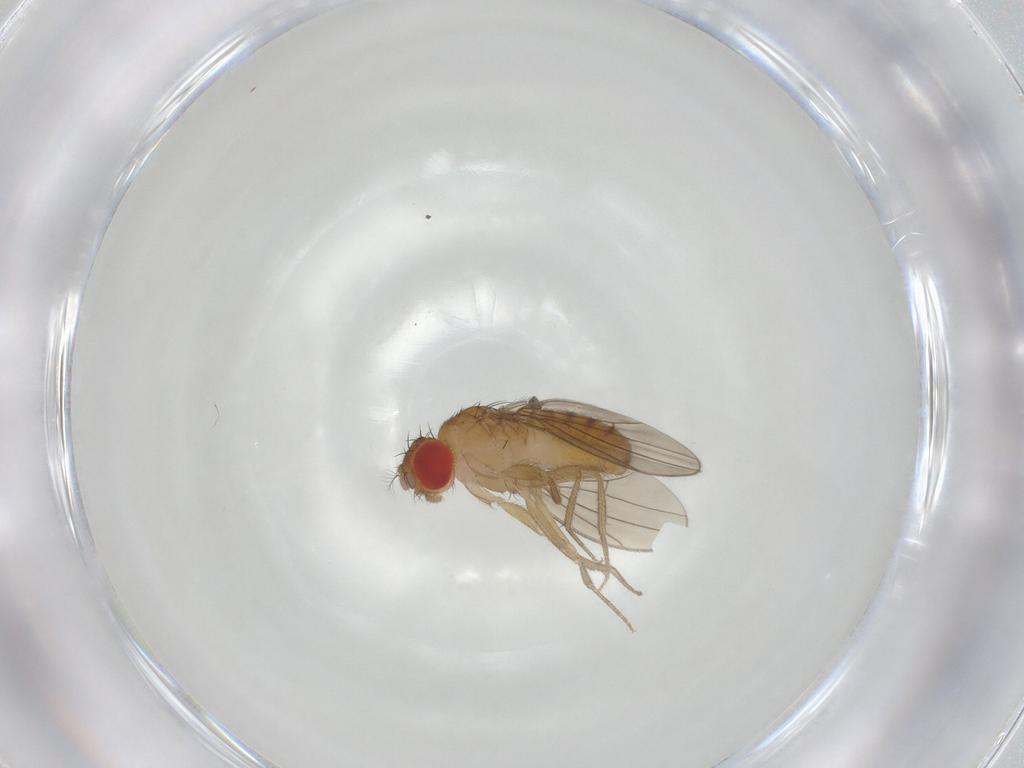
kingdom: Animalia
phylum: Arthropoda
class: Insecta
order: Diptera
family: Drosophilidae
